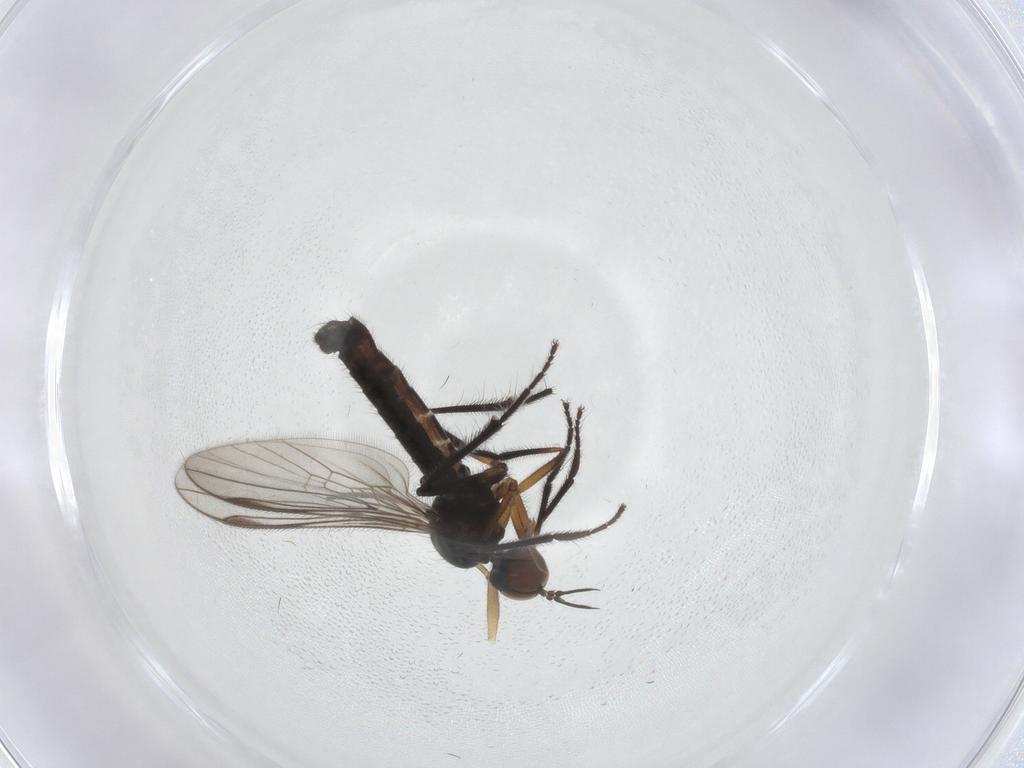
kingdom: Animalia
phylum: Arthropoda
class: Insecta
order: Diptera
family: Empididae
